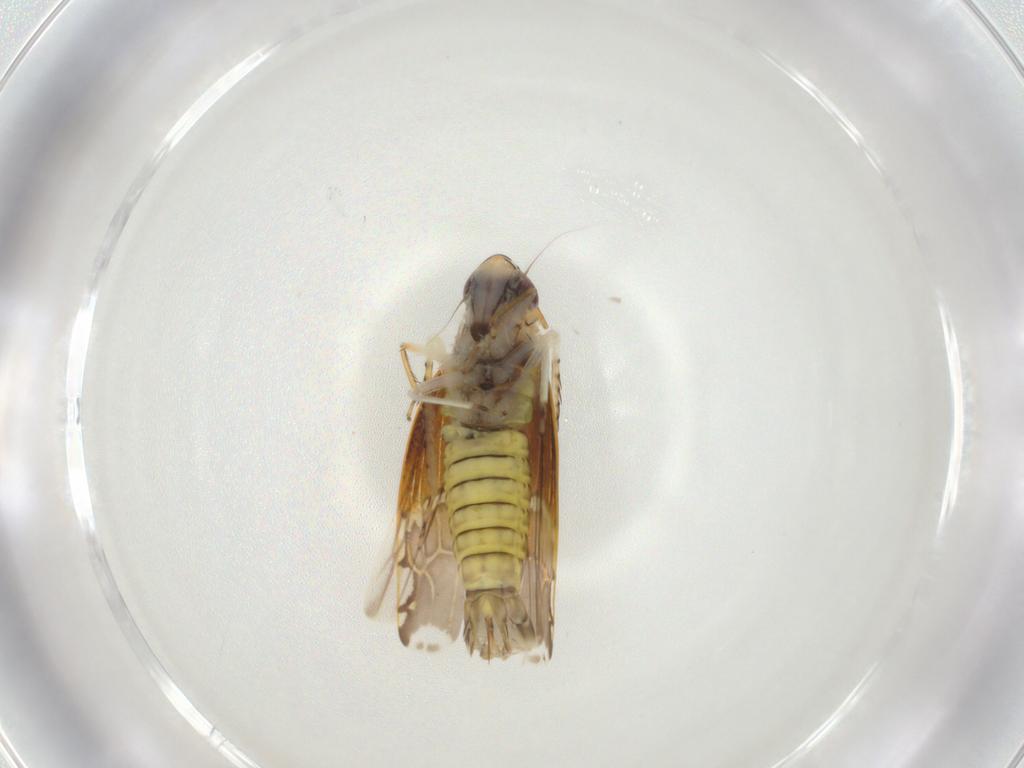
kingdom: Animalia
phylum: Arthropoda
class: Insecta
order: Hemiptera
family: Cicadellidae
